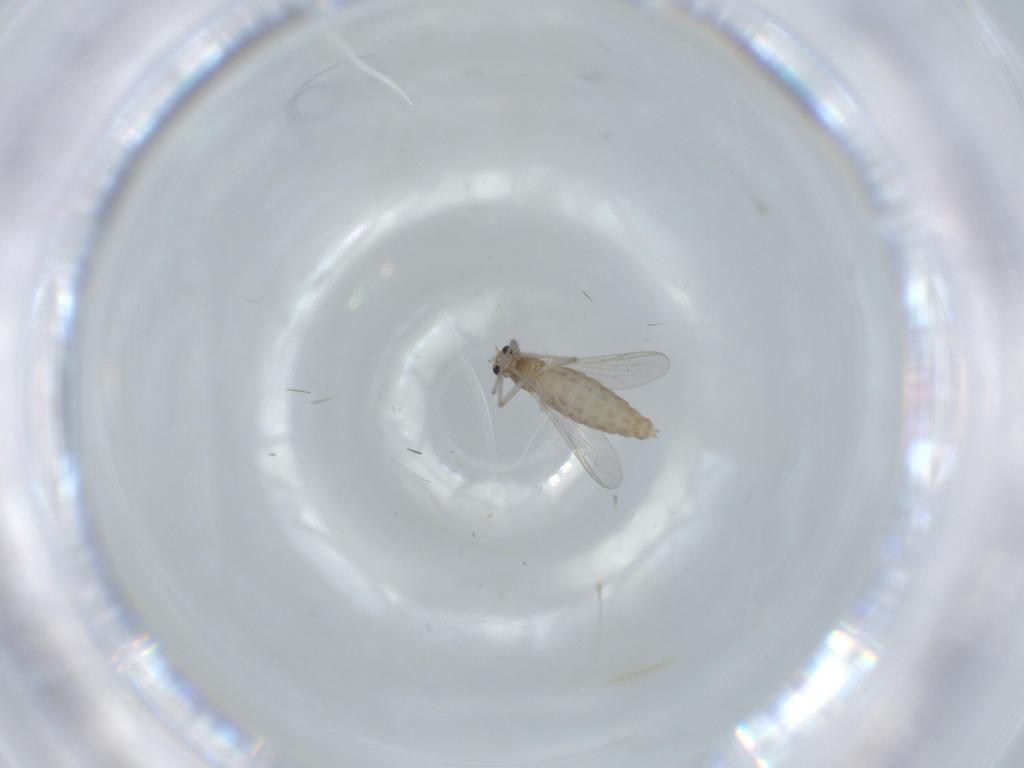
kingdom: Animalia
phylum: Arthropoda
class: Insecta
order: Diptera
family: Chironomidae
